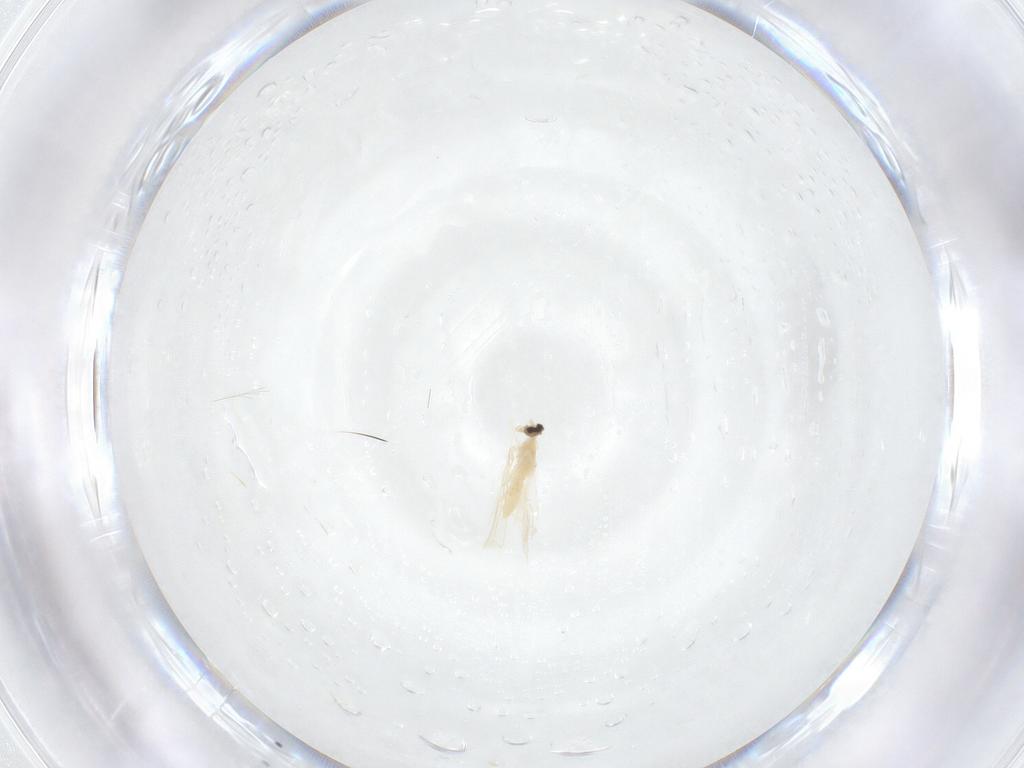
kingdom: Animalia
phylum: Arthropoda
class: Insecta
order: Diptera
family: Cecidomyiidae
